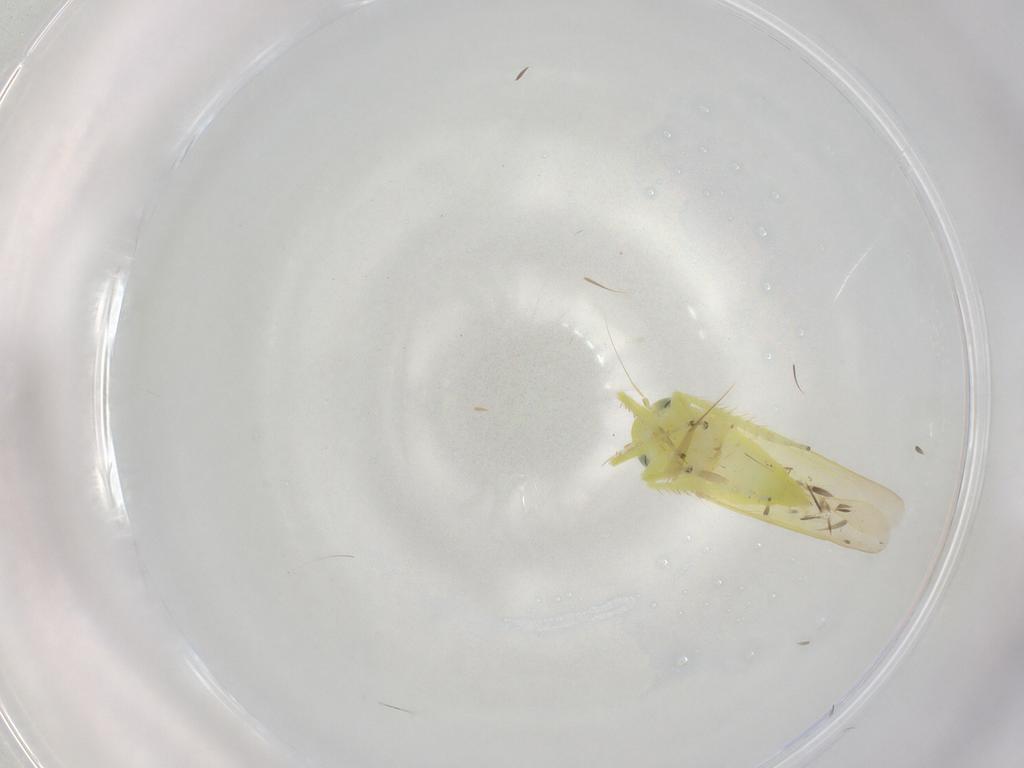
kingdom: Animalia
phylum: Arthropoda
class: Insecta
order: Hemiptera
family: Cicadellidae
